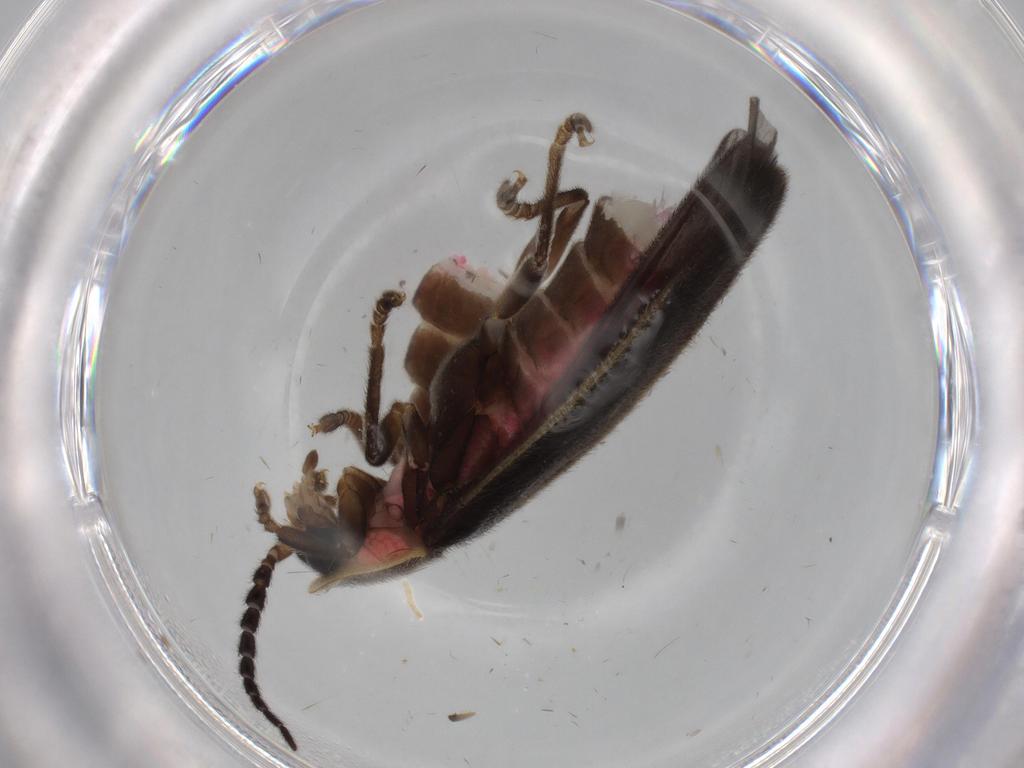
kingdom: Animalia
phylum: Arthropoda
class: Insecta
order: Coleoptera
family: Lampyridae
